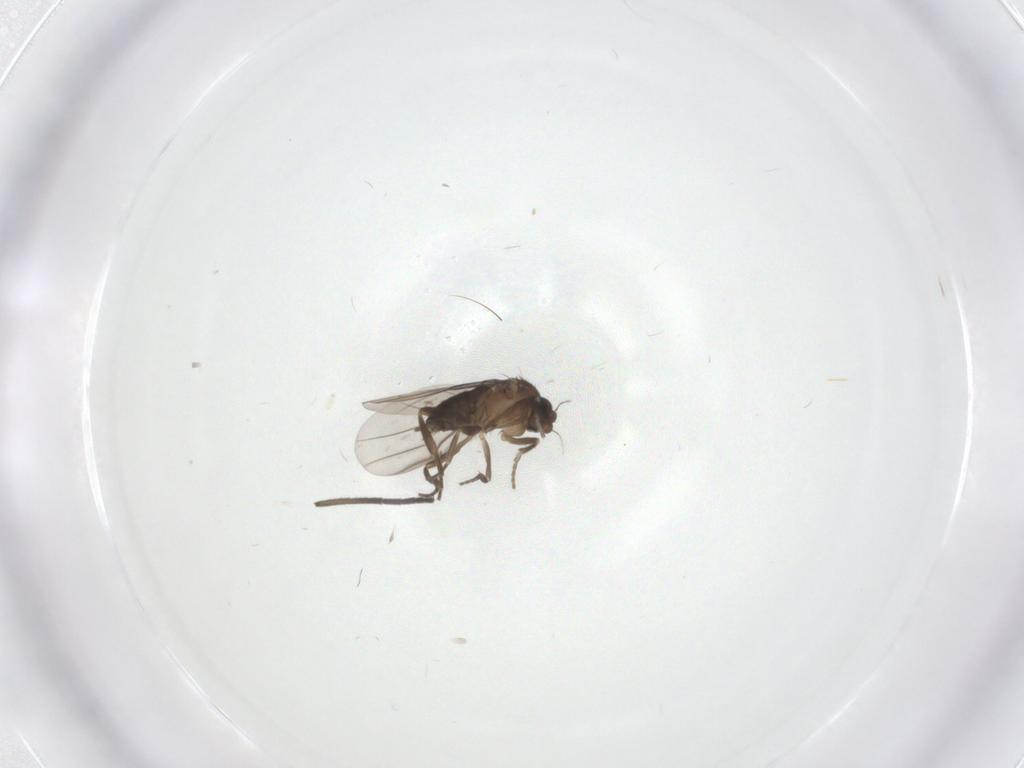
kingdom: Animalia
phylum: Arthropoda
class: Insecta
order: Diptera
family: Phoridae
